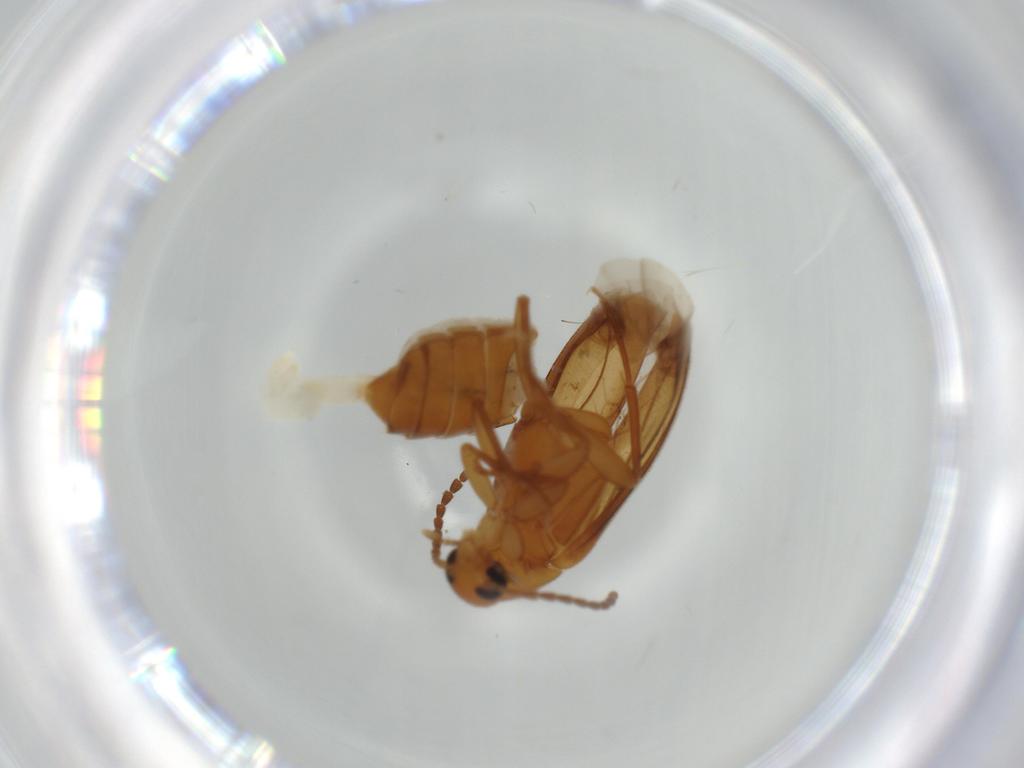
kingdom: Animalia
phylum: Arthropoda
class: Insecta
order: Coleoptera
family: Scraptiidae
